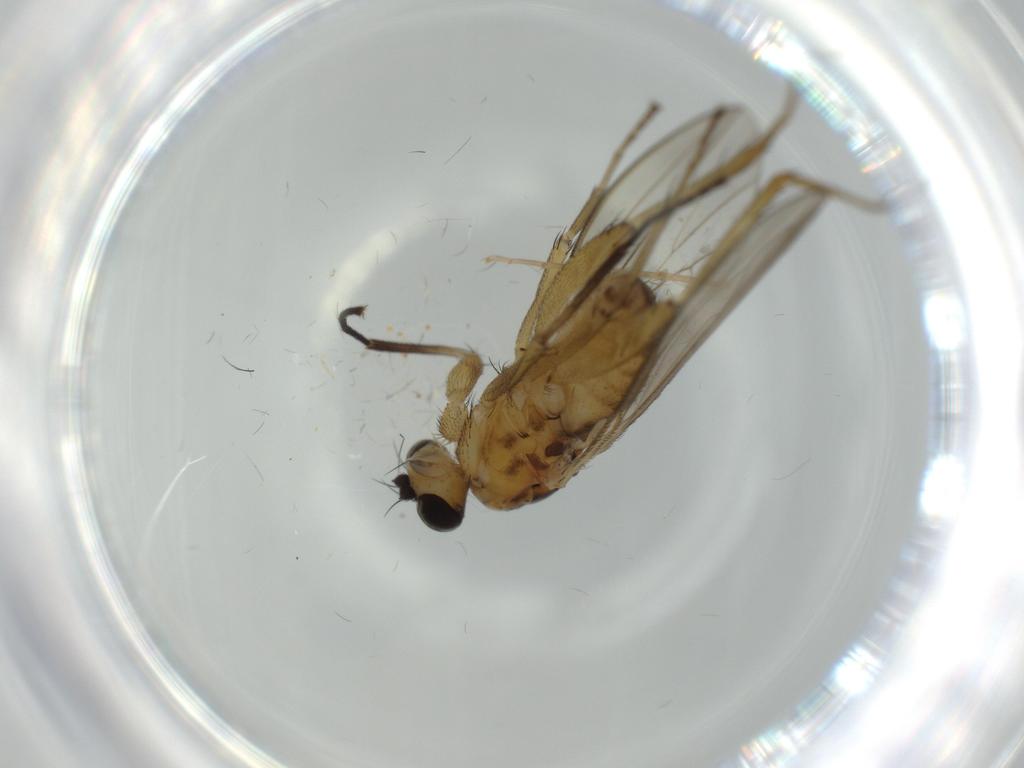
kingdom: Animalia
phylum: Arthropoda
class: Insecta
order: Diptera
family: Lonchopteridae
